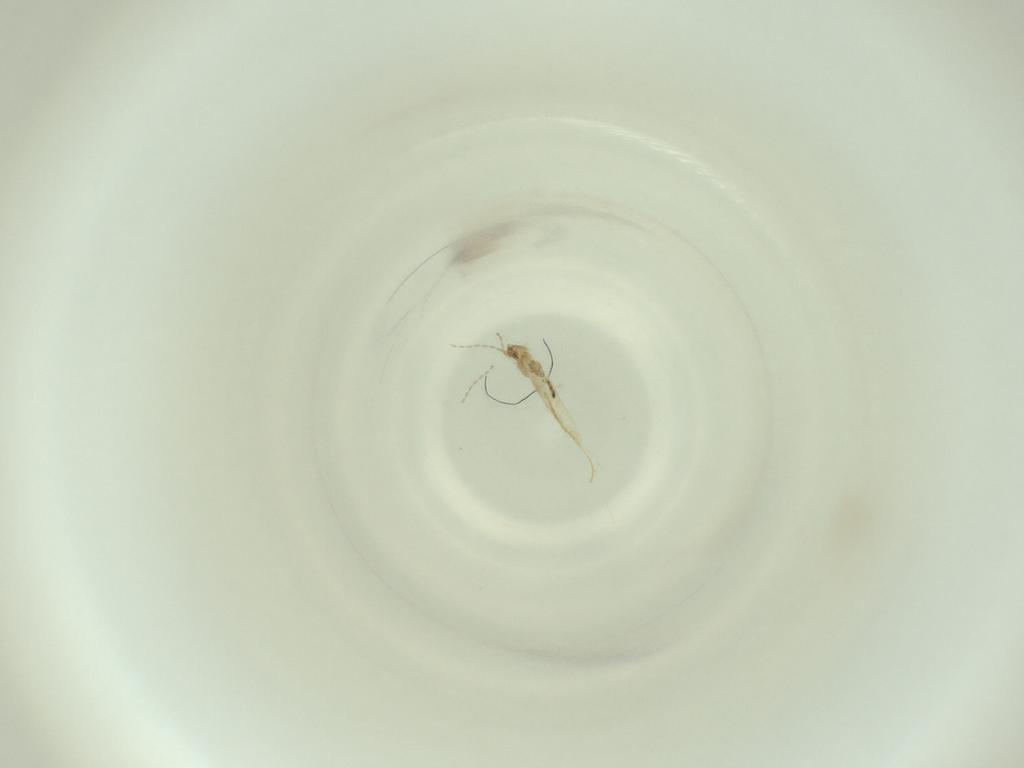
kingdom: Animalia
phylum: Arthropoda
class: Insecta
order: Diptera
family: Cecidomyiidae
